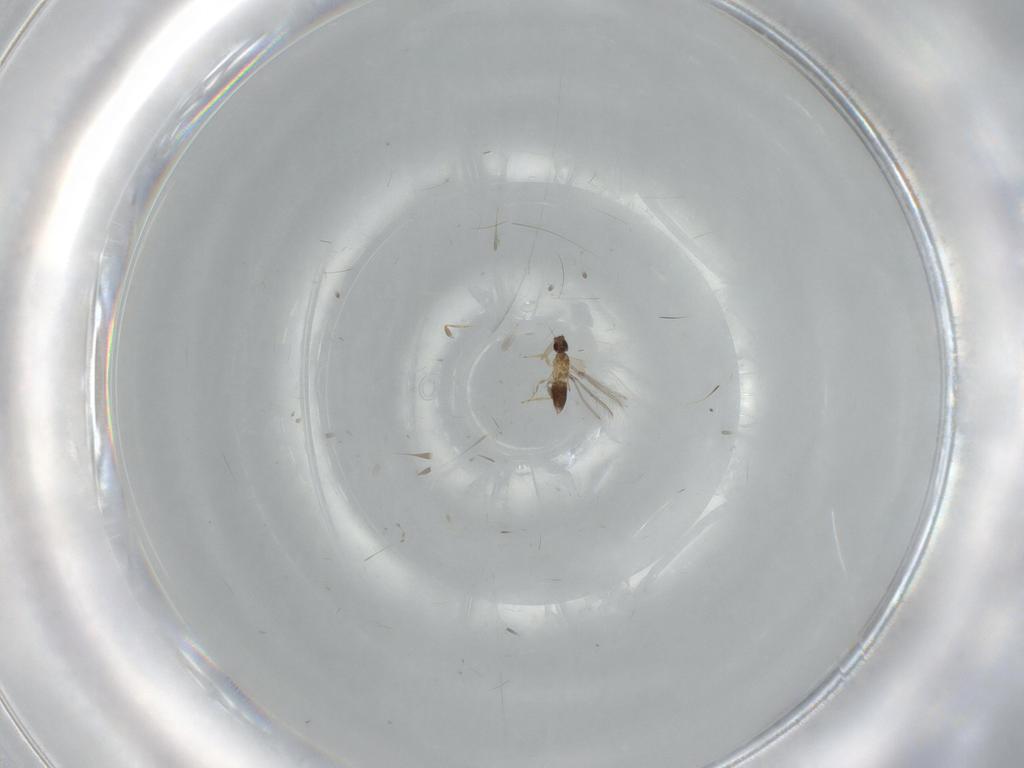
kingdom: Animalia
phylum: Arthropoda
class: Insecta
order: Hymenoptera
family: Mymaridae
